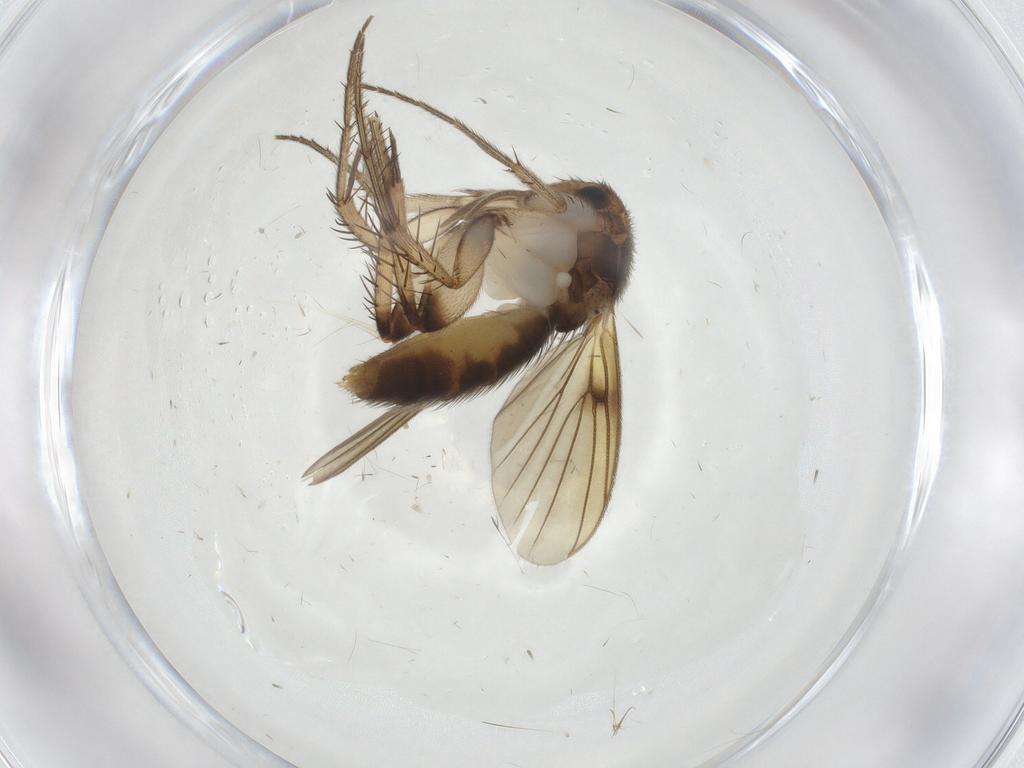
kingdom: Animalia
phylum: Arthropoda
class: Insecta
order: Diptera
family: Mycetophilidae
